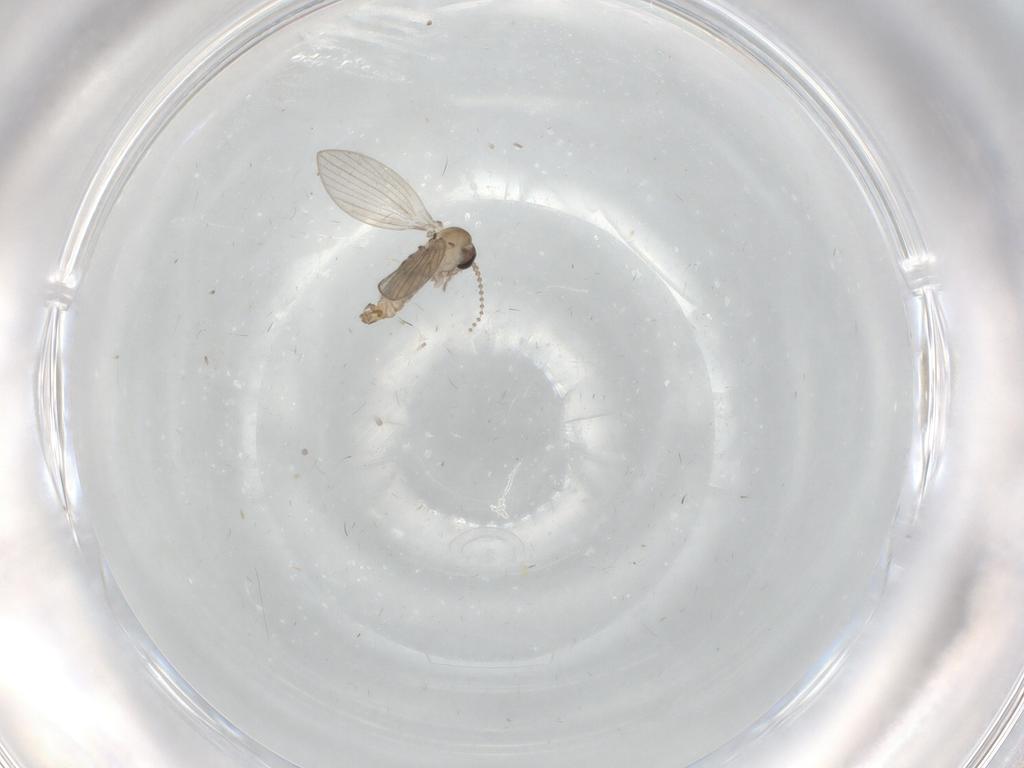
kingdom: Animalia
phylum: Arthropoda
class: Insecta
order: Diptera
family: Psychodidae
